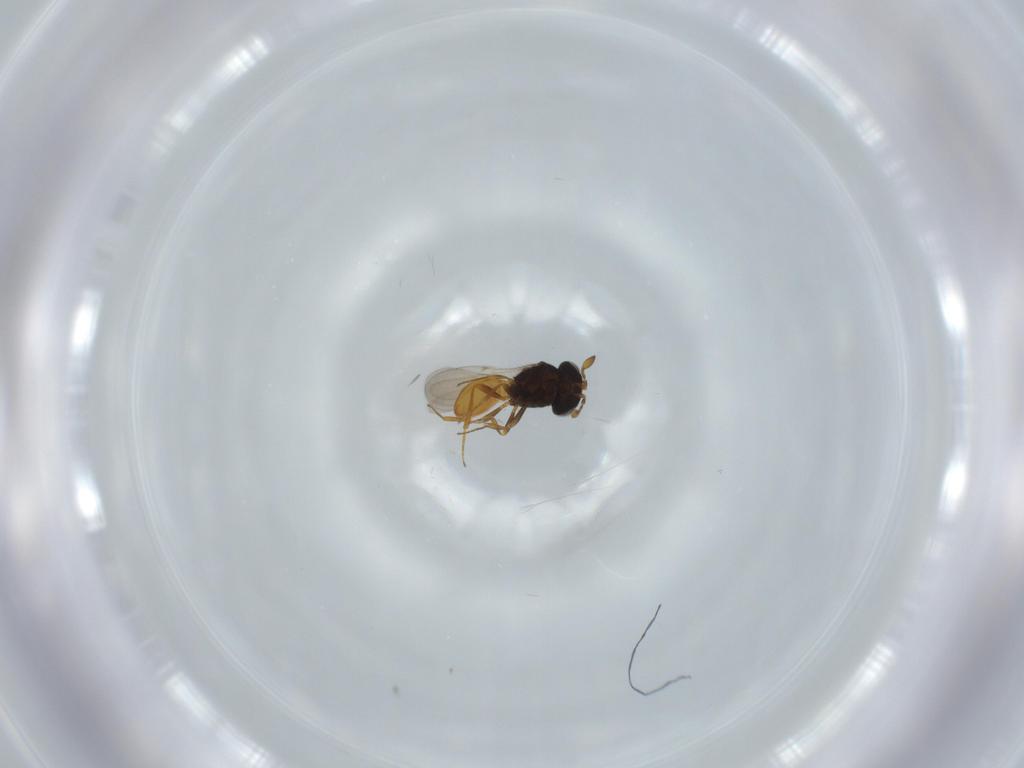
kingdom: Animalia
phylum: Arthropoda
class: Insecta
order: Hymenoptera
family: Scelionidae
